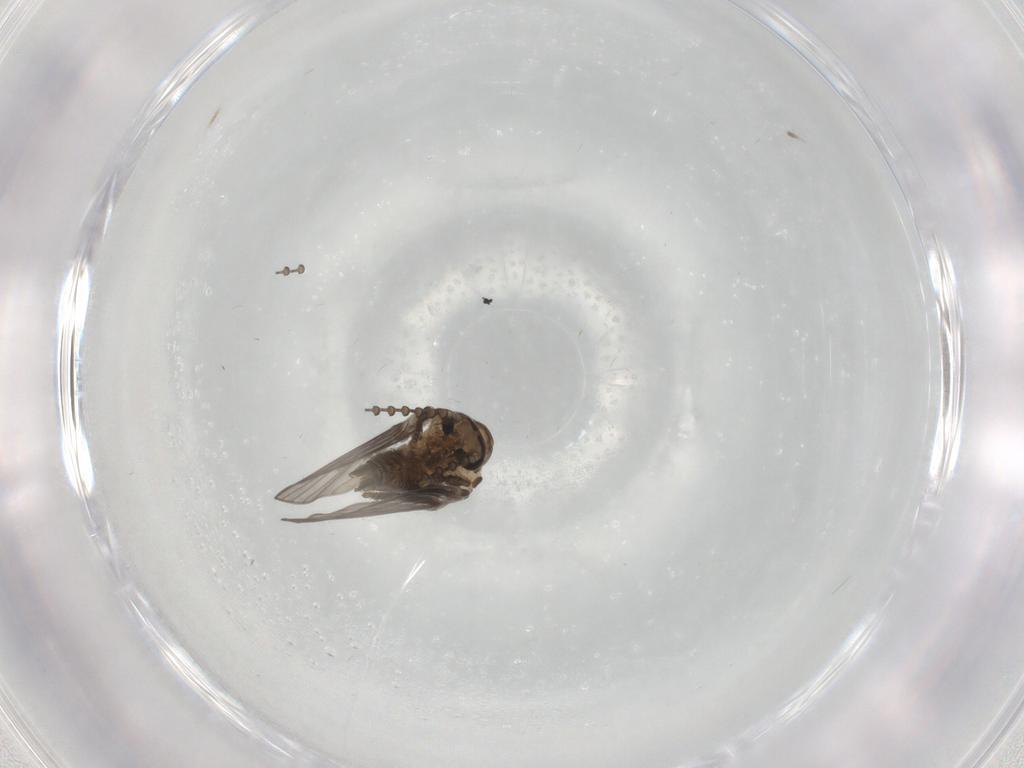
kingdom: Animalia
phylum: Arthropoda
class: Insecta
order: Diptera
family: Psychodidae
